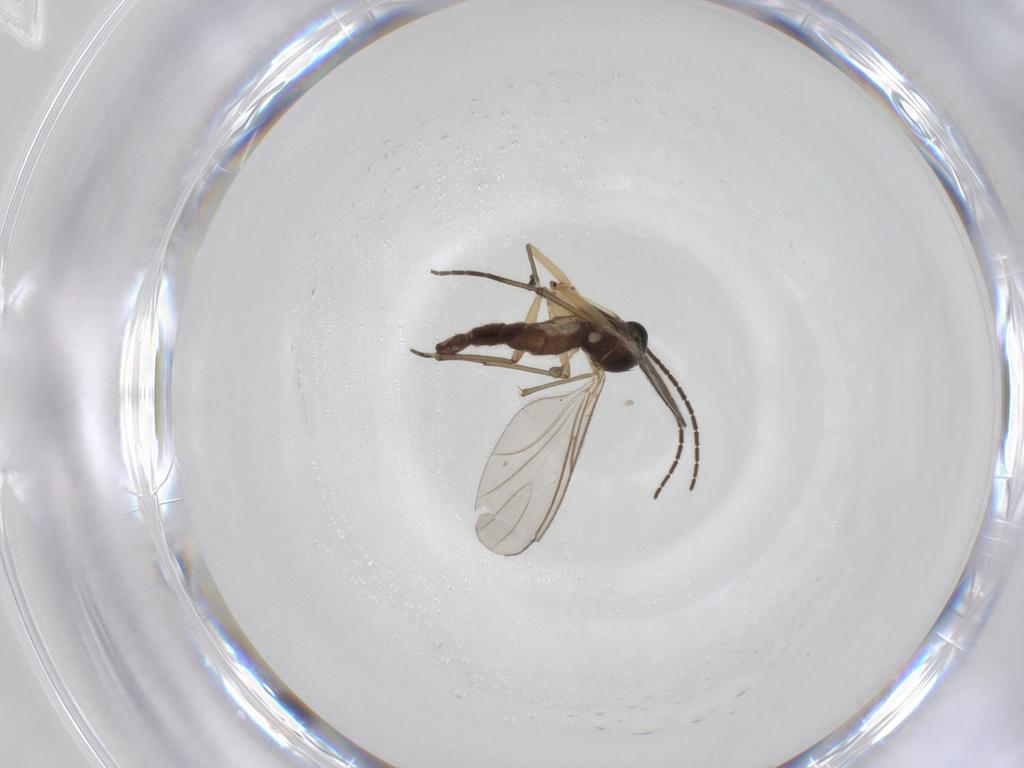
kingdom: Animalia
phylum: Arthropoda
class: Insecta
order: Diptera
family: Sciaridae
